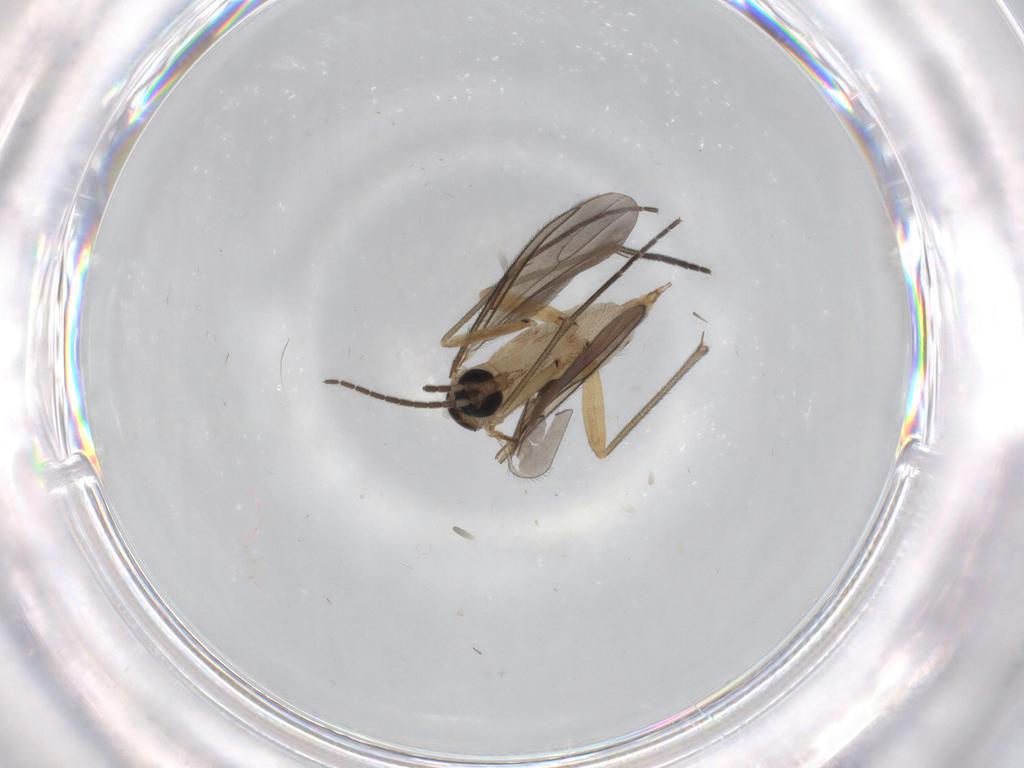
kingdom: Animalia
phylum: Arthropoda
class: Insecta
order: Diptera
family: Sciaridae
